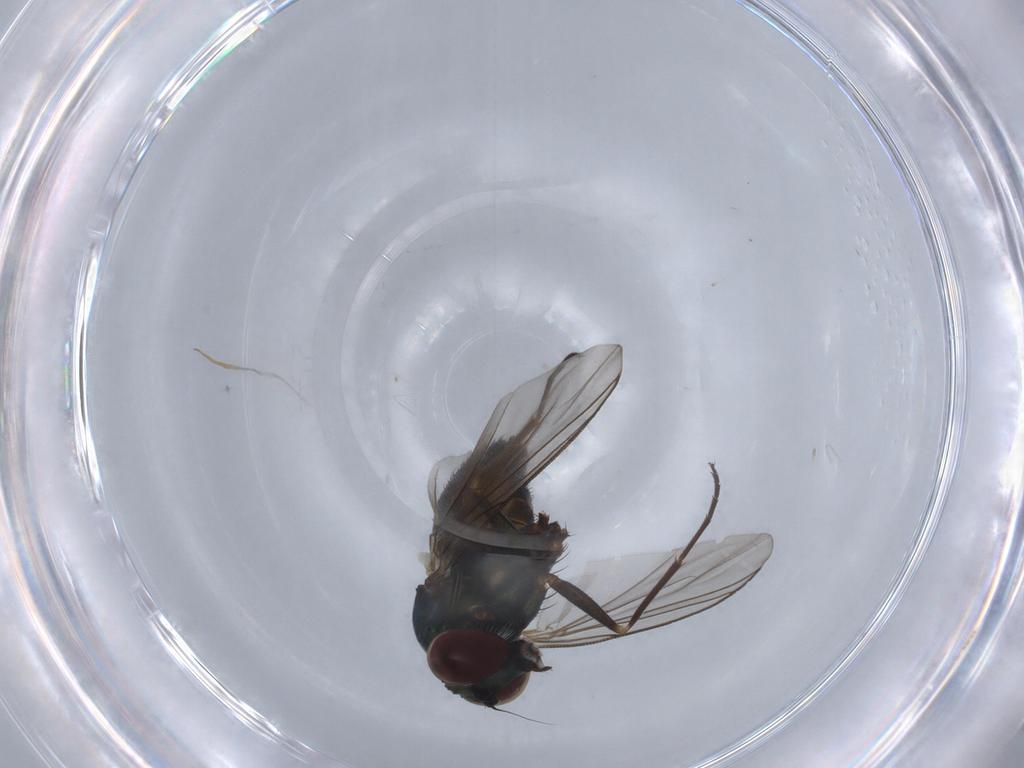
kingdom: Animalia
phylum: Arthropoda
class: Insecta
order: Diptera
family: Dolichopodidae
